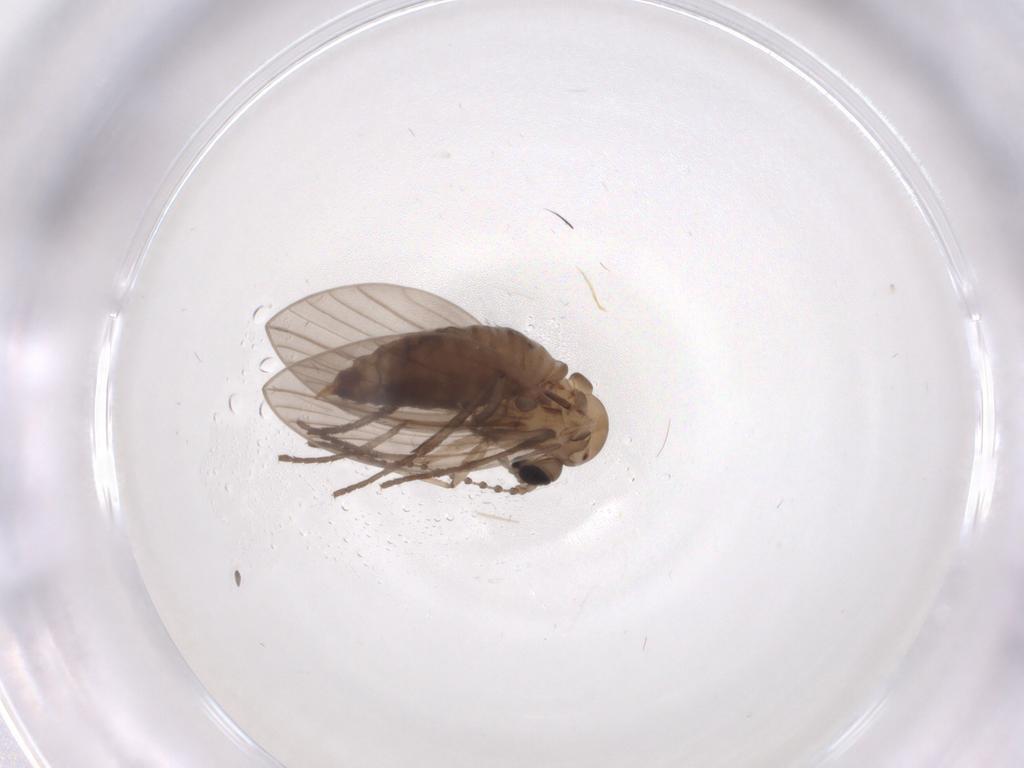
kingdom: Animalia
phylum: Arthropoda
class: Insecta
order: Diptera
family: Psychodidae
